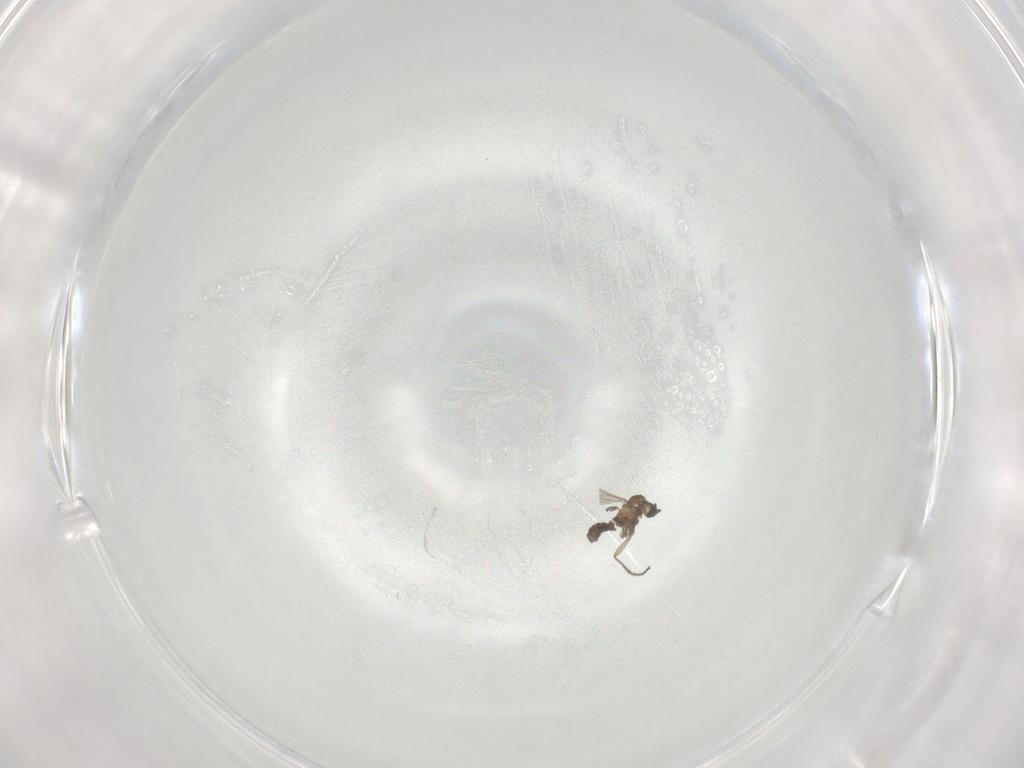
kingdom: Animalia
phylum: Arthropoda
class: Insecta
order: Diptera
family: Sciaridae
